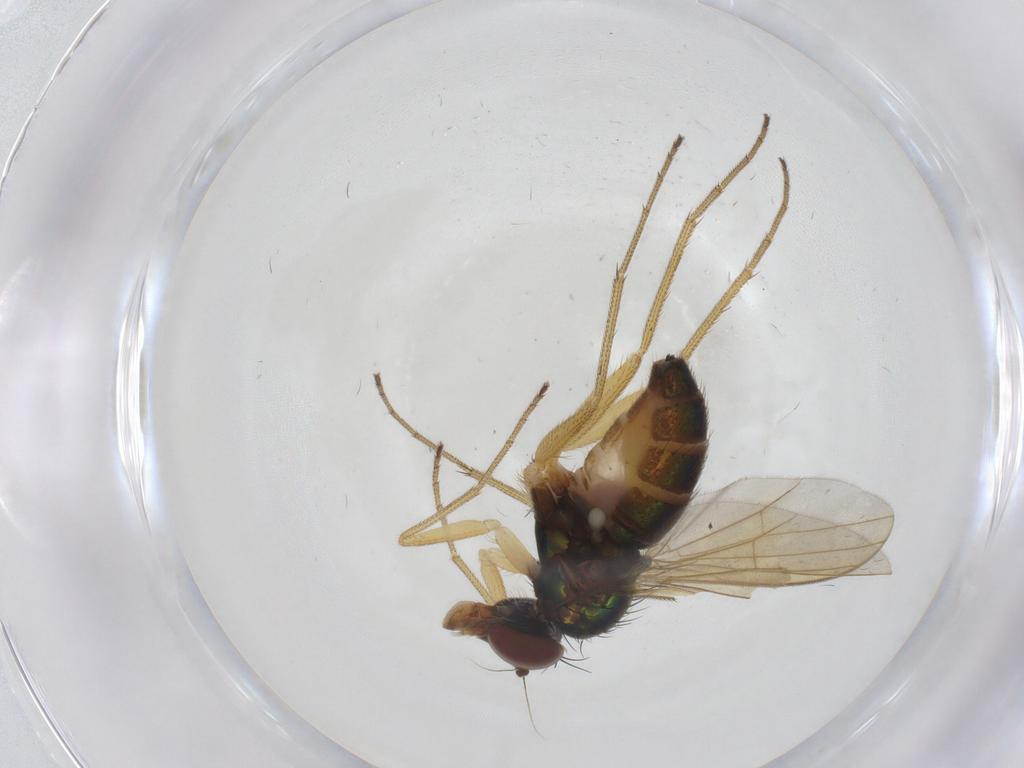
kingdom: Animalia
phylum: Arthropoda
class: Insecta
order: Diptera
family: Dolichopodidae
